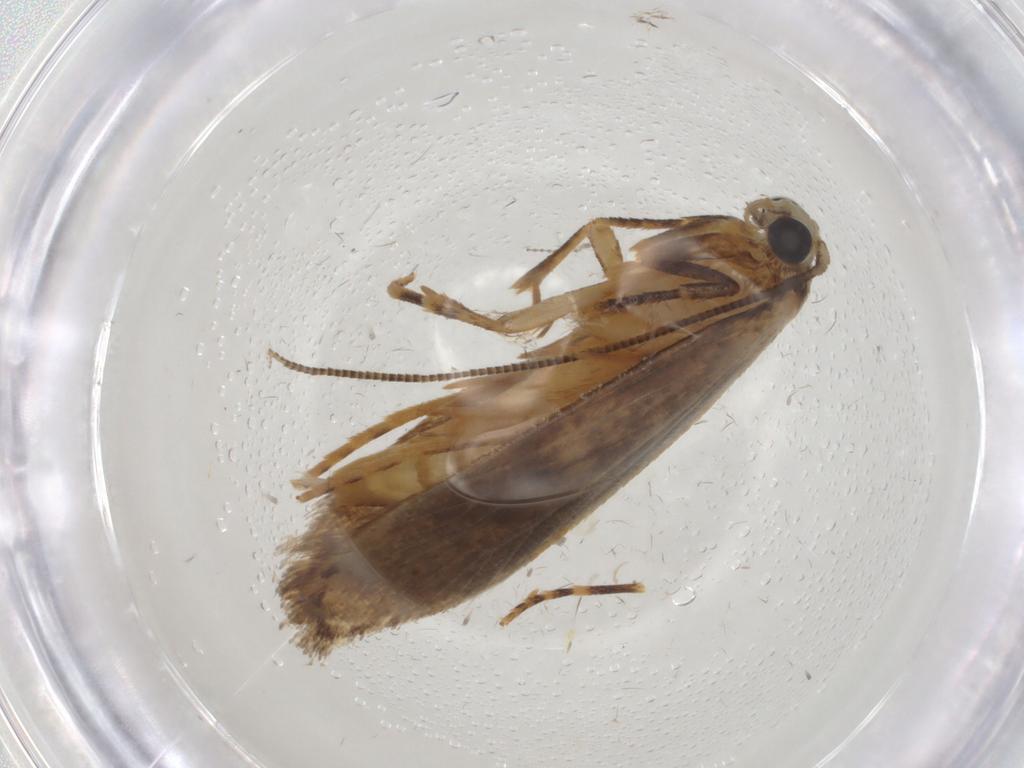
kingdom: Animalia
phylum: Arthropoda
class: Insecta
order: Lepidoptera
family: Tineidae
